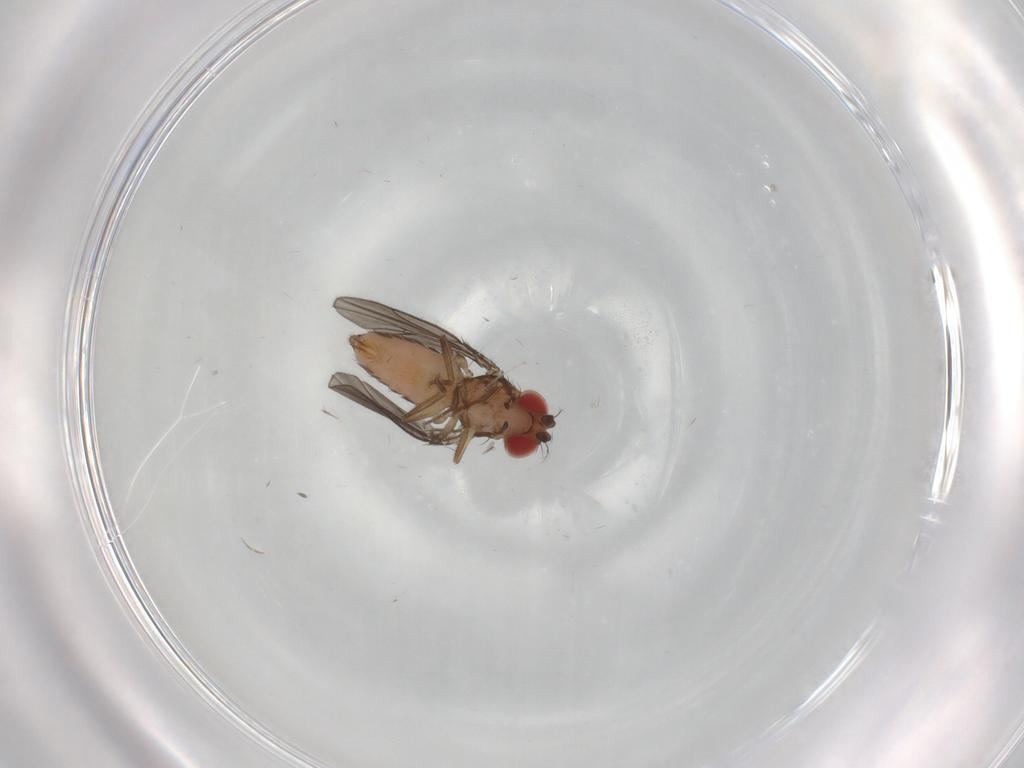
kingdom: Animalia
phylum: Arthropoda
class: Insecta
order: Diptera
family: Drosophilidae
